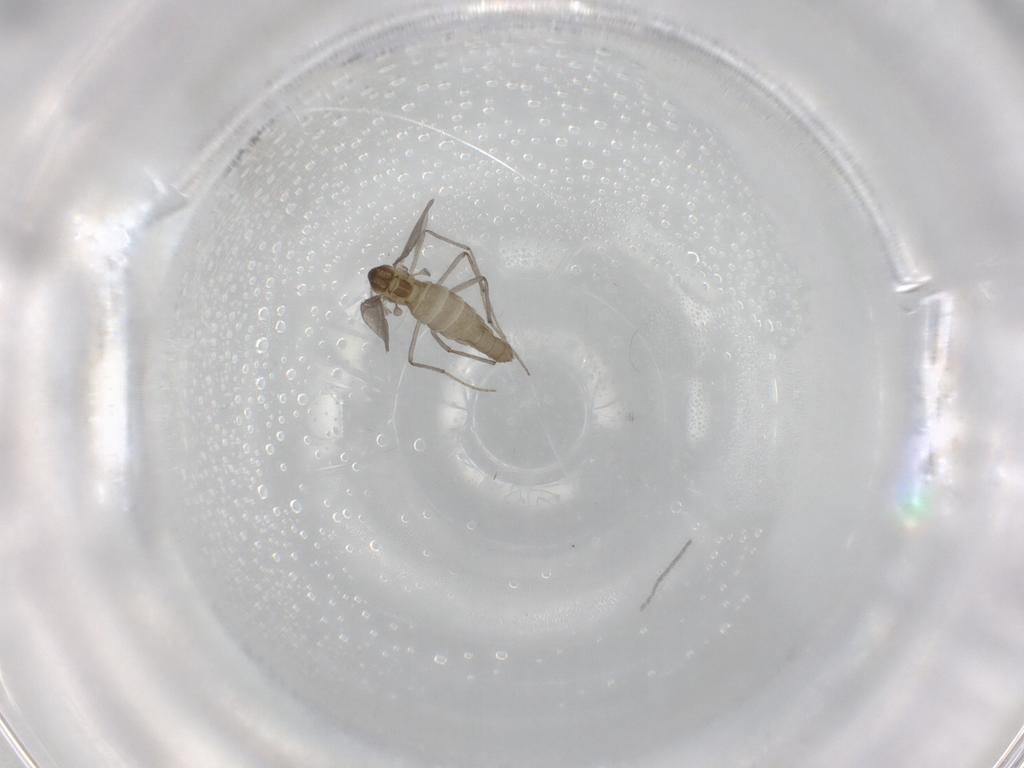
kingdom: Animalia
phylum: Arthropoda
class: Insecta
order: Diptera
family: Chironomidae
